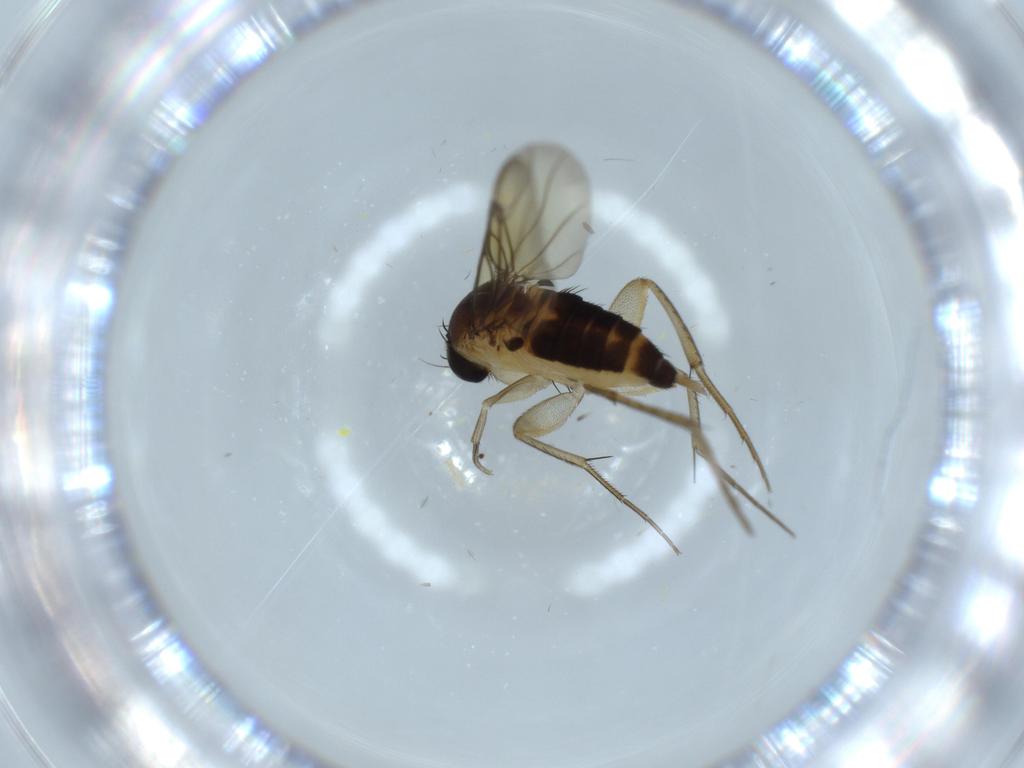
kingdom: Animalia
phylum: Arthropoda
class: Insecta
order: Diptera
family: Phoridae
